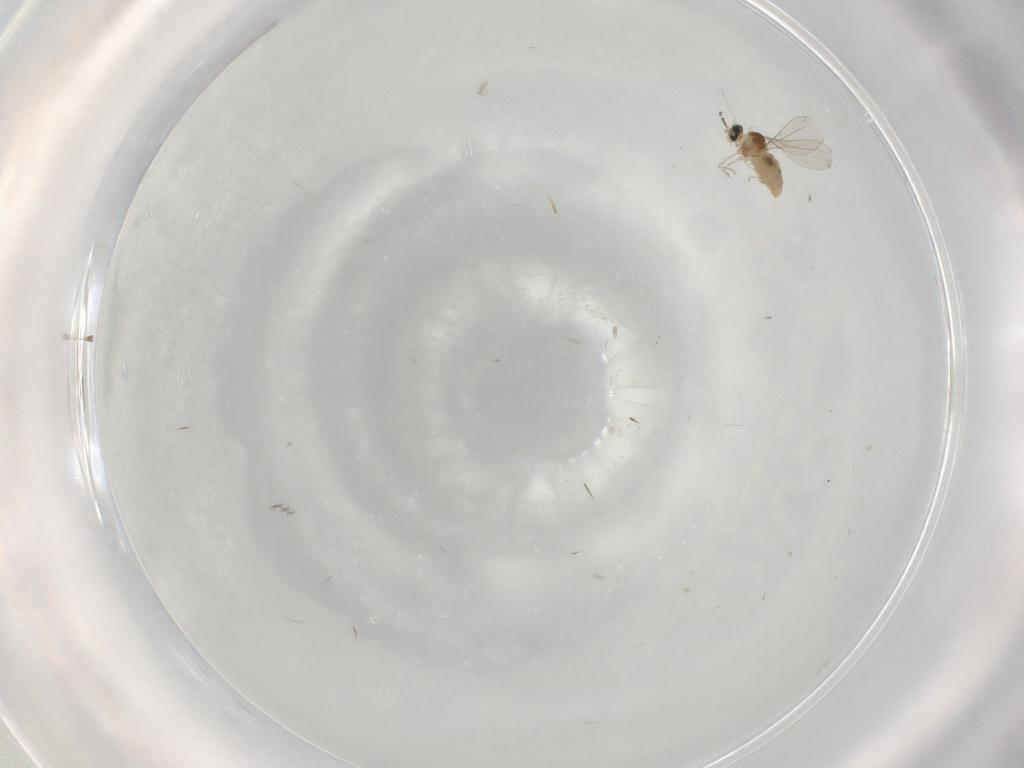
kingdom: Animalia
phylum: Arthropoda
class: Insecta
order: Diptera
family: Phoridae
